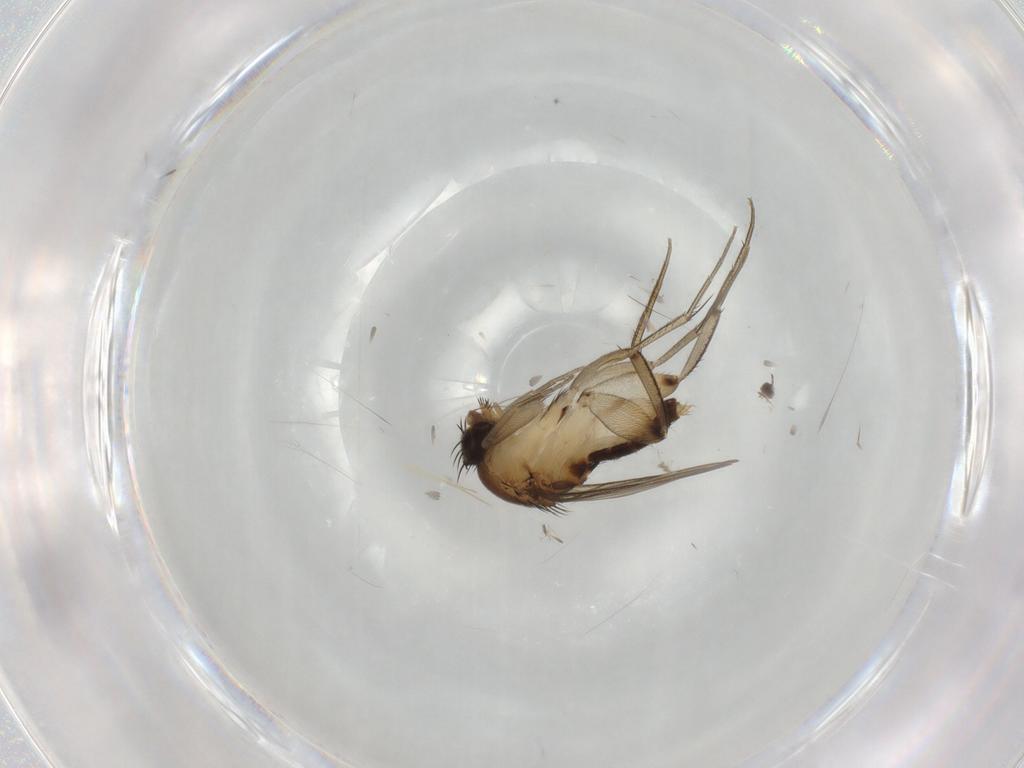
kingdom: Animalia
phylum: Arthropoda
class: Insecta
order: Diptera
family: Phoridae
